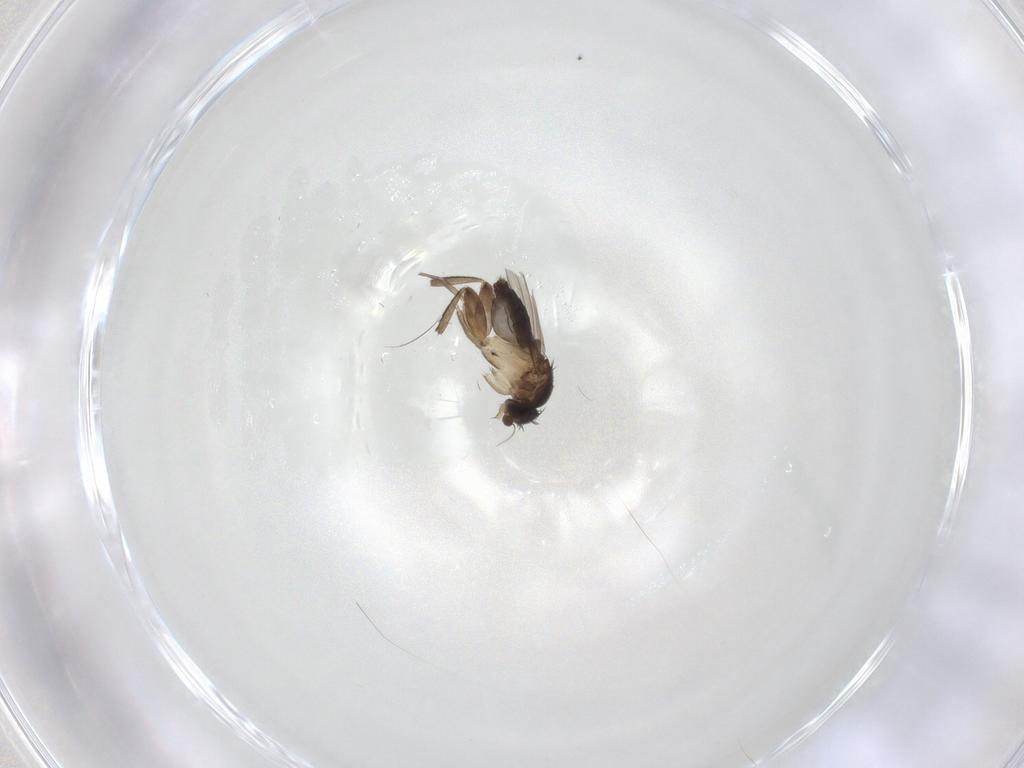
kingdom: Animalia
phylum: Arthropoda
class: Insecta
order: Diptera
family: Phoridae
